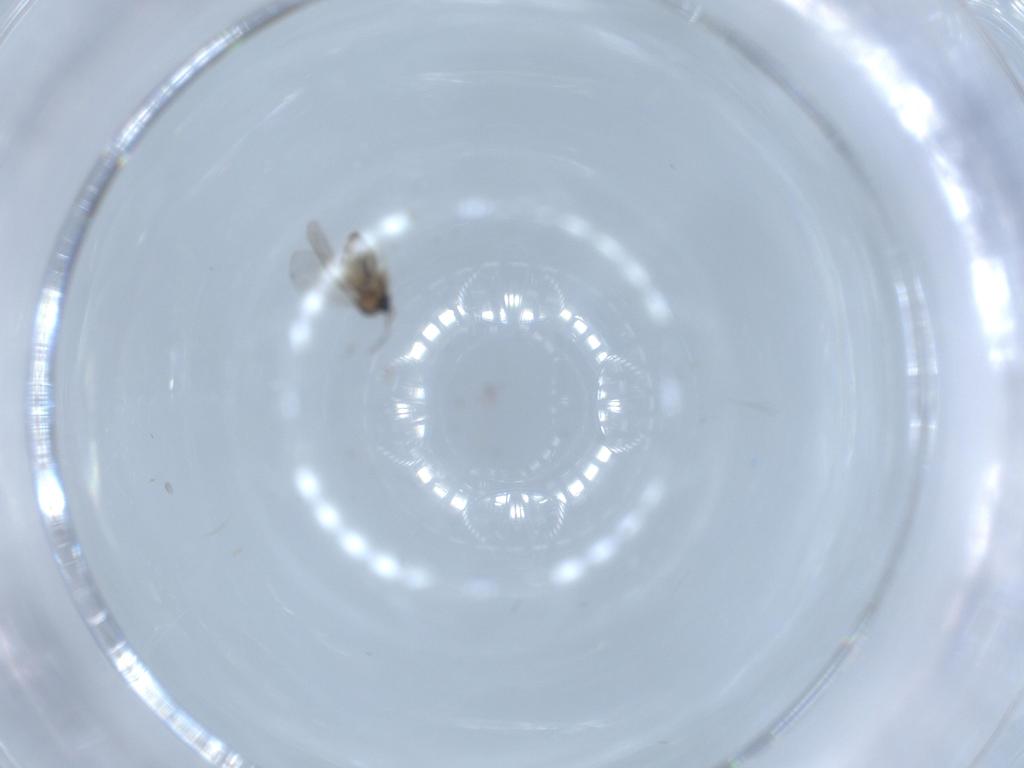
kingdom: Animalia
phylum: Arthropoda
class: Insecta
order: Diptera
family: Cecidomyiidae
